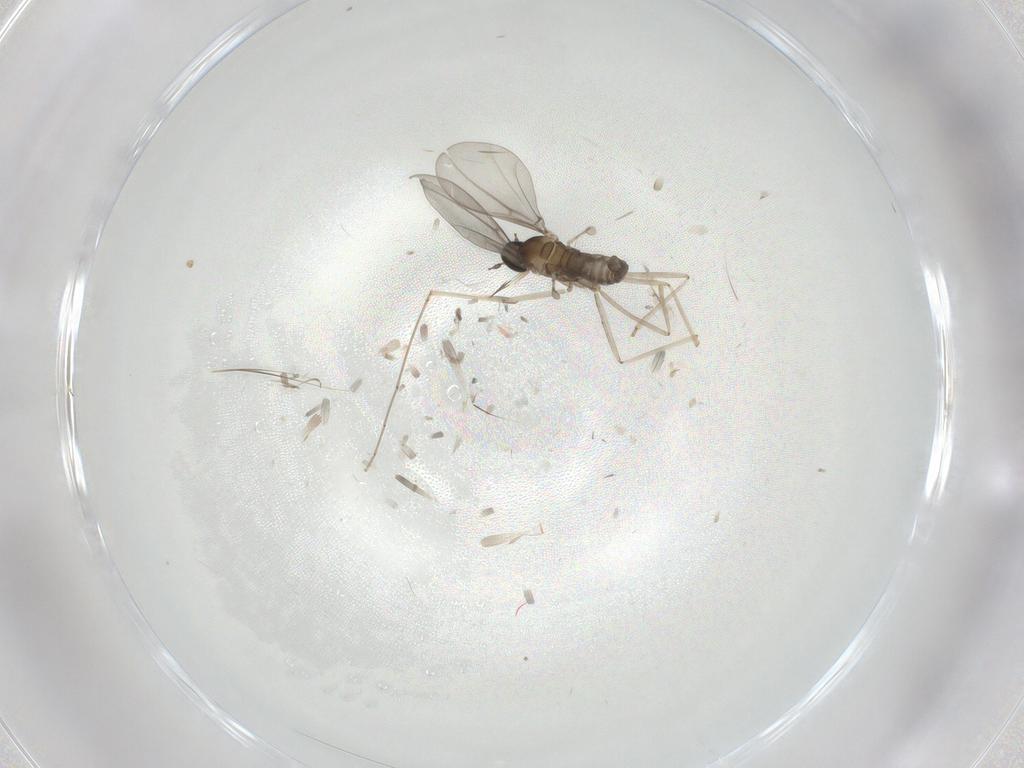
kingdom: Animalia
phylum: Arthropoda
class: Insecta
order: Diptera
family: Cecidomyiidae
